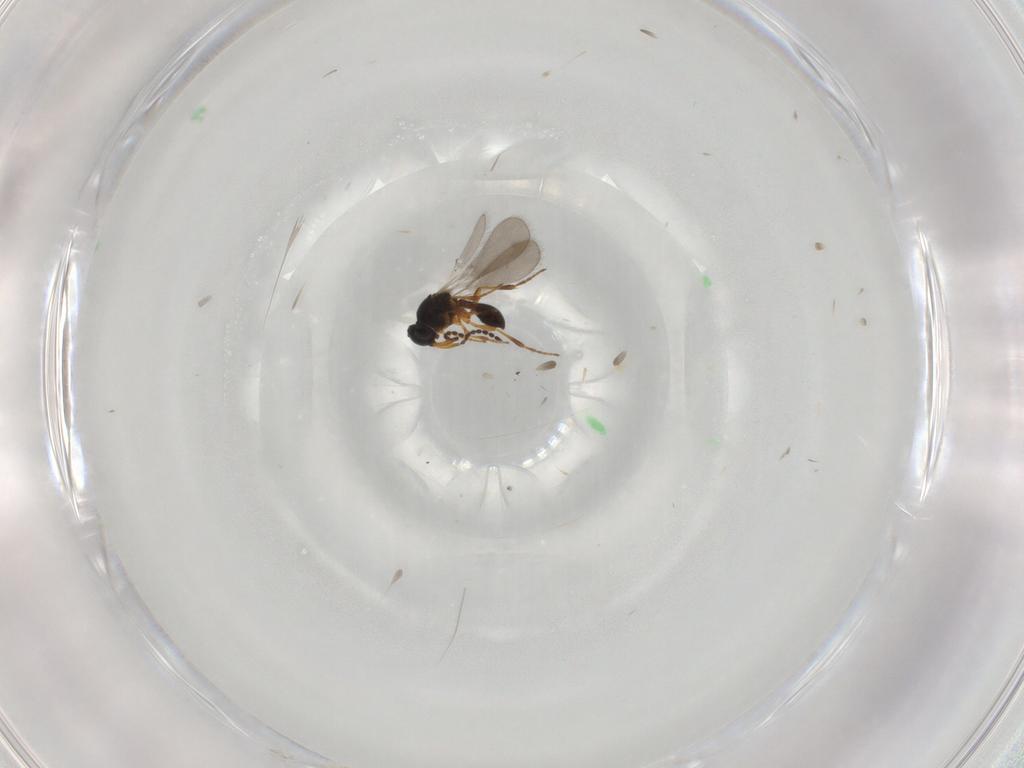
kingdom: Animalia
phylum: Arthropoda
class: Insecta
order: Hymenoptera
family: Platygastridae
